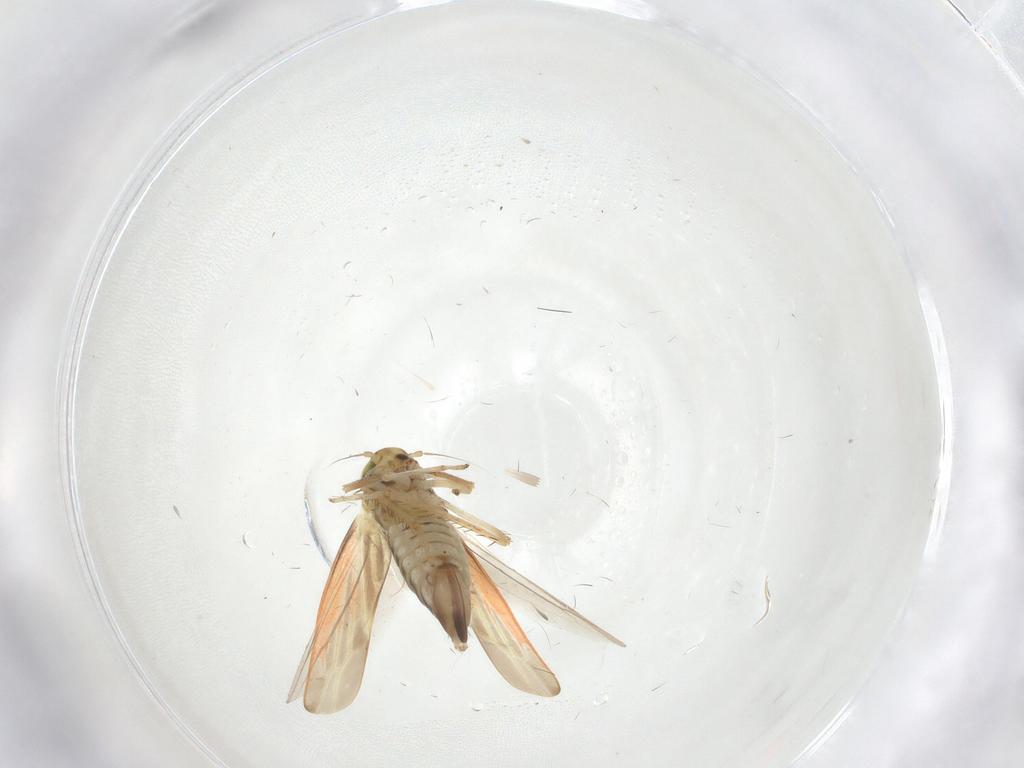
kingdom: Animalia
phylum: Arthropoda
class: Insecta
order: Hemiptera
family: Cicadellidae
